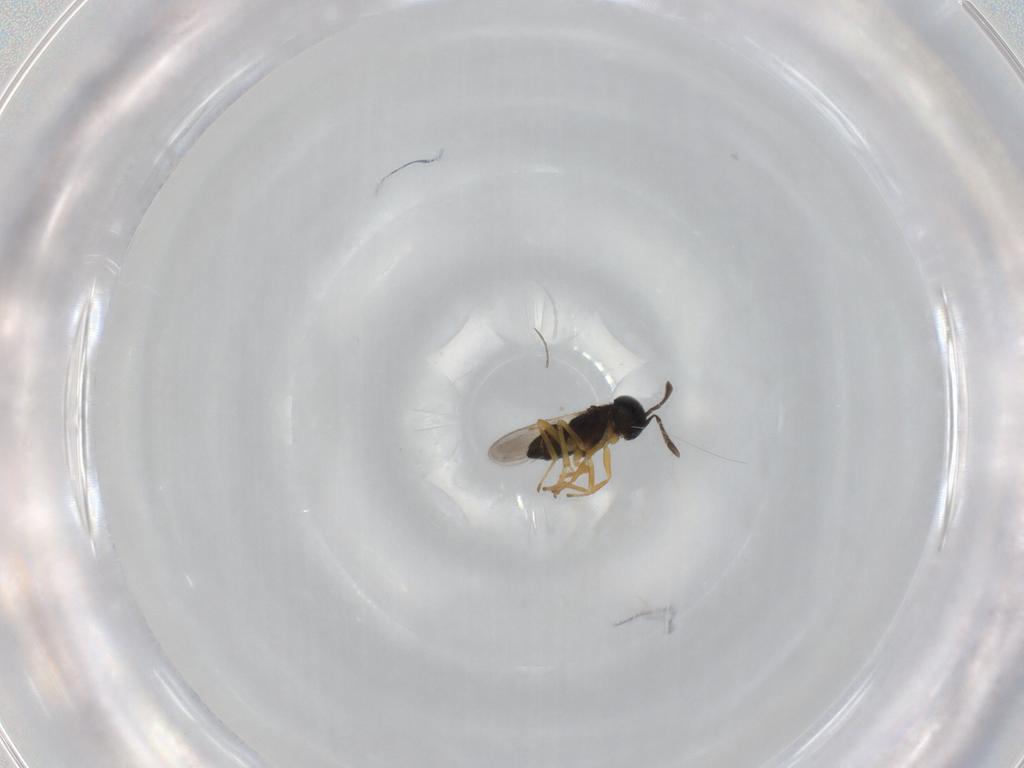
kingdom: Animalia
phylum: Arthropoda
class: Insecta
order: Hymenoptera
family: Encyrtidae
